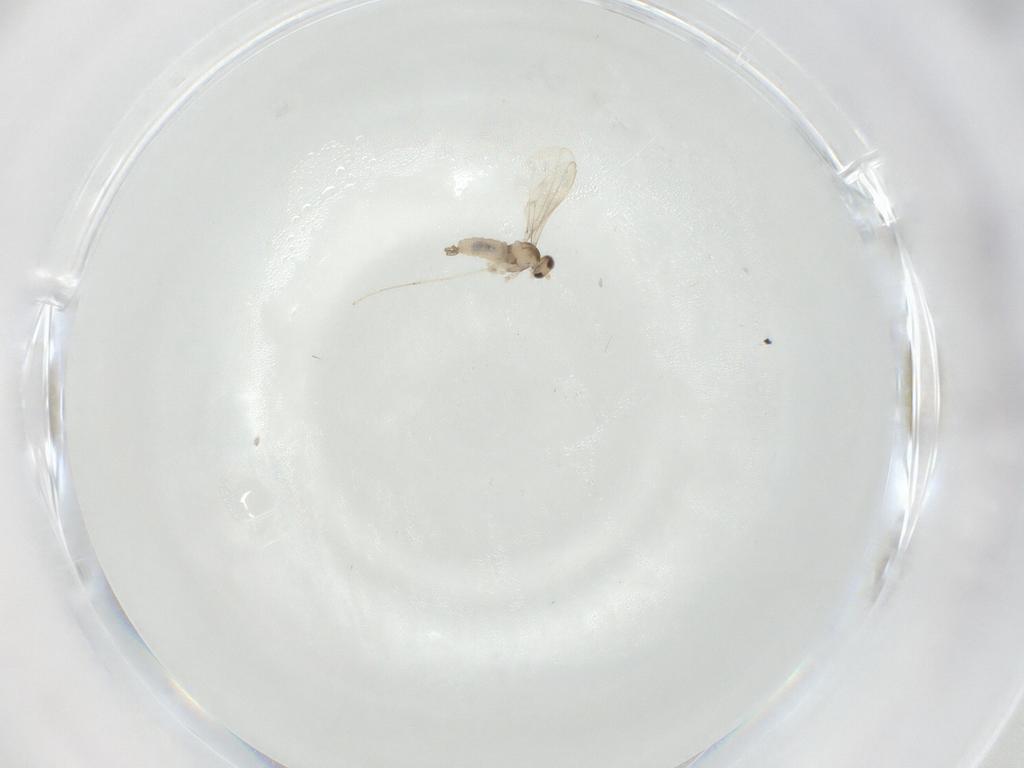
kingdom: Animalia
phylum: Arthropoda
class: Insecta
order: Diptera
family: Cecidomyiidae
